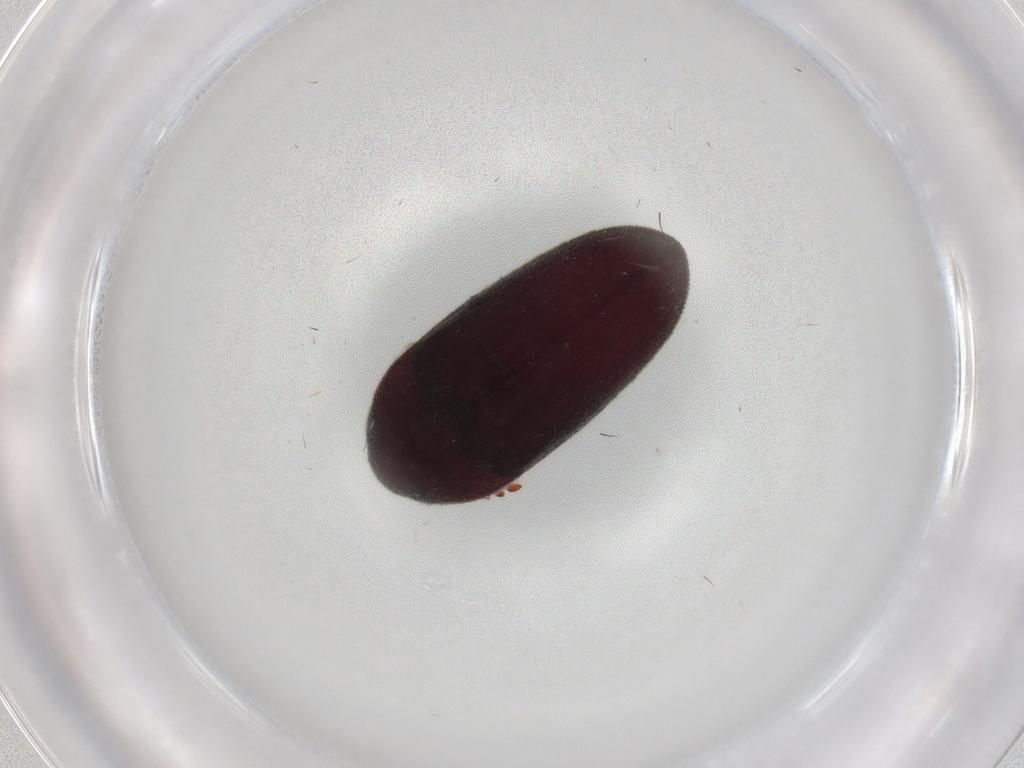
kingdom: Animalia
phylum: Arthropoda
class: Insecta
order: Coleoptera
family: Throscidae
